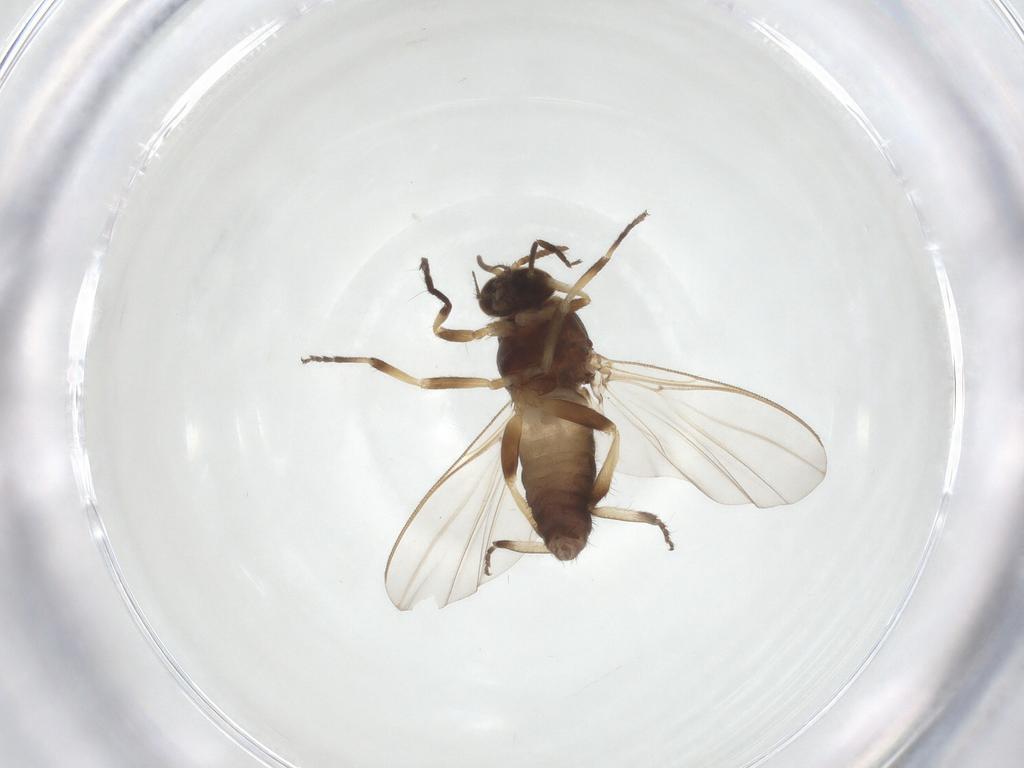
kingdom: Animalia
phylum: Arthropoda
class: Insecta
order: Diptera
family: Simuliidae
